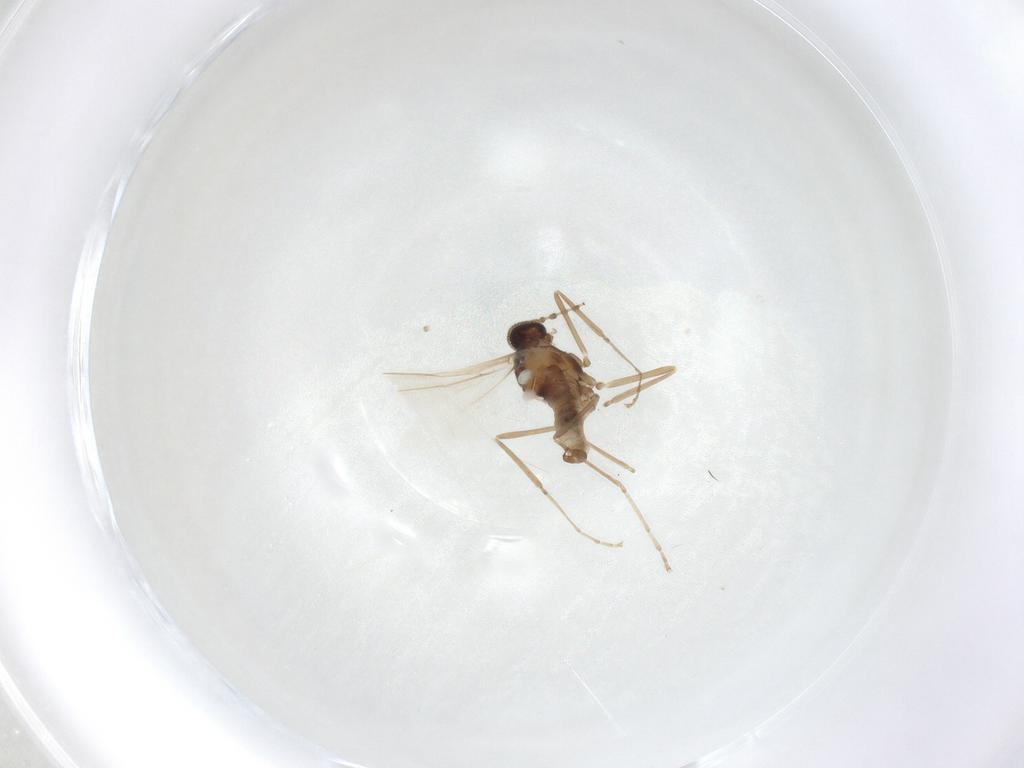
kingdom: Animalia
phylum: Arthropoda
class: Insecta
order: Diptera
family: Cecidomyiidae
